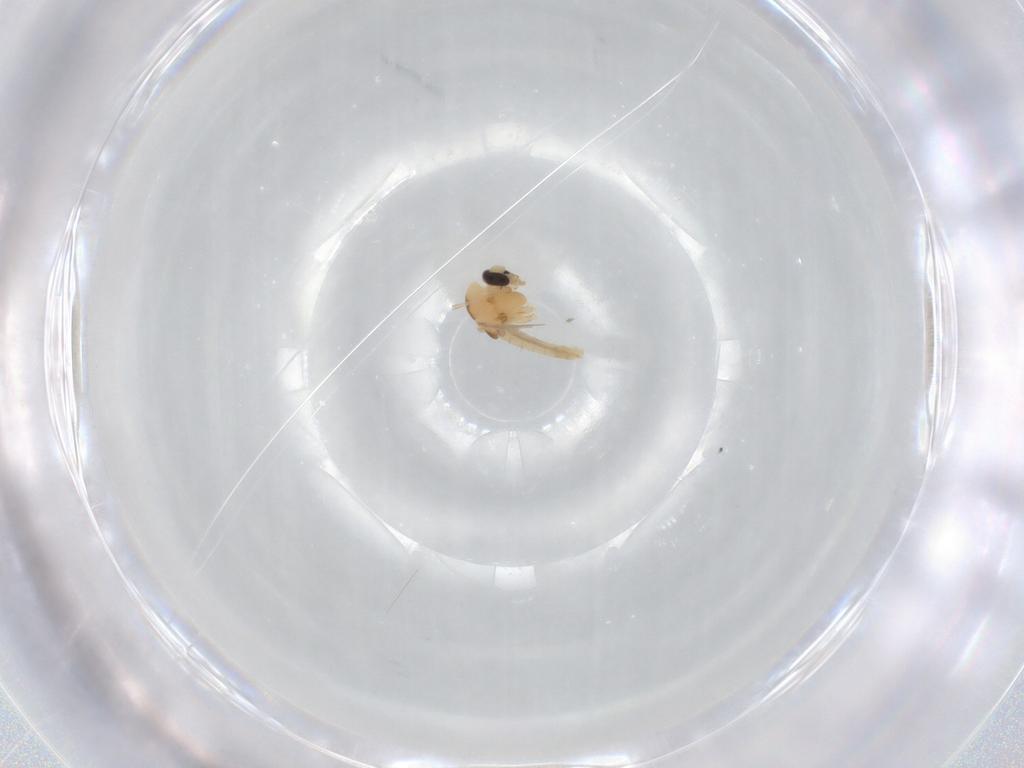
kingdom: Animalia
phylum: Arthropoda
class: Insecta
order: Diptera
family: Chironomidae
